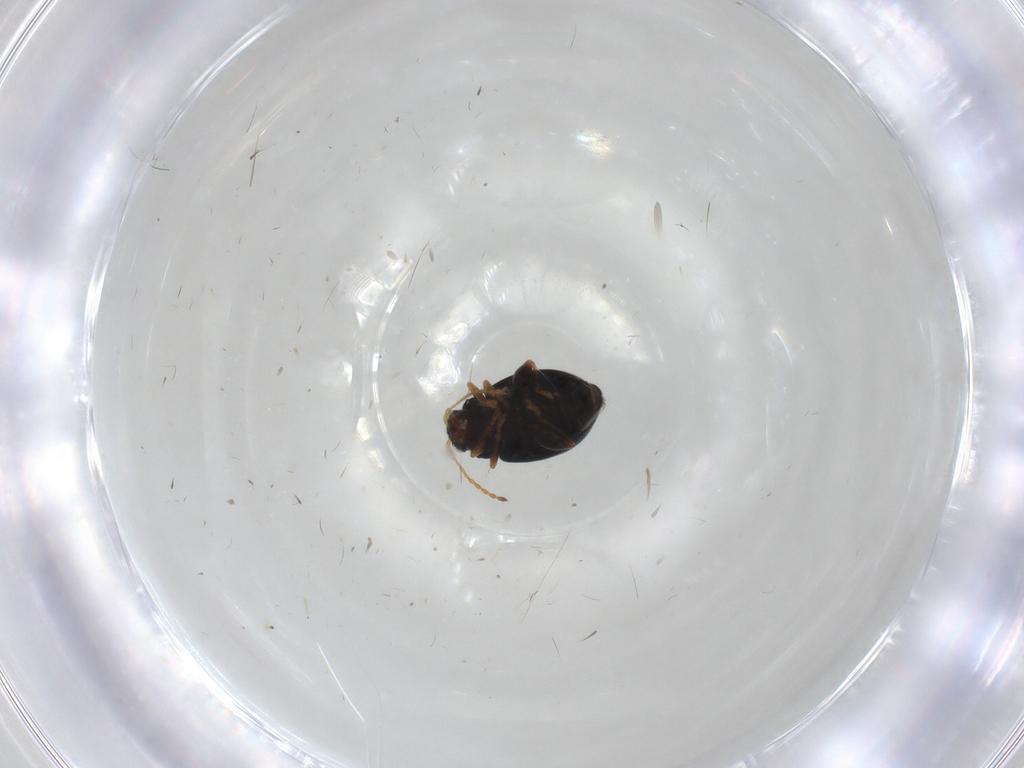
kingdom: Animalia
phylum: Arthropoda
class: Insecta
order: Coleoptera
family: Chrysomelidae
